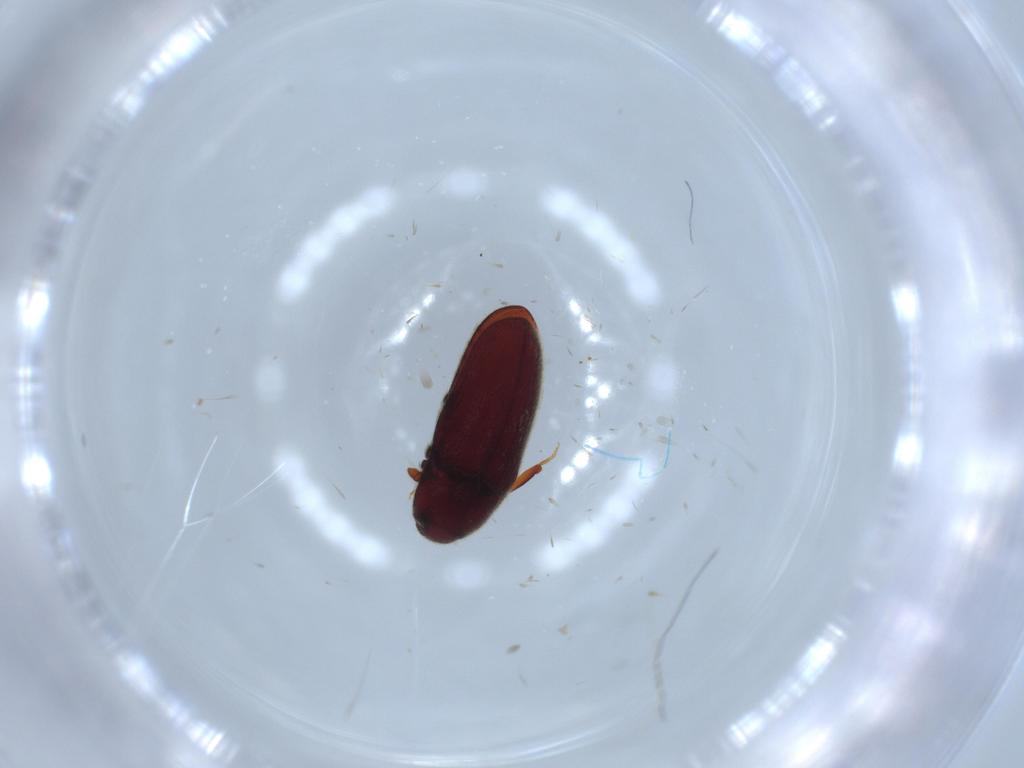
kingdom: Animalia
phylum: Arthropoda
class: Insecta
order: Coleoptera
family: Throscidae
